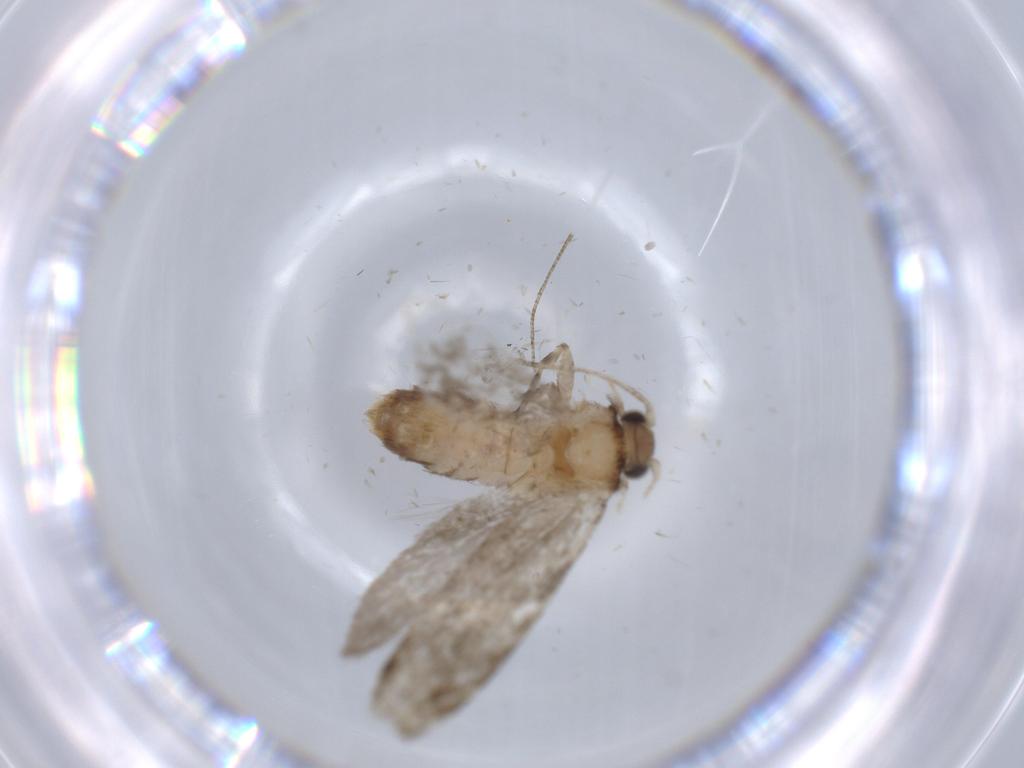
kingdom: Animalia
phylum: Arthropoda
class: Insecta
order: Lepidoptera
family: Tineidae
